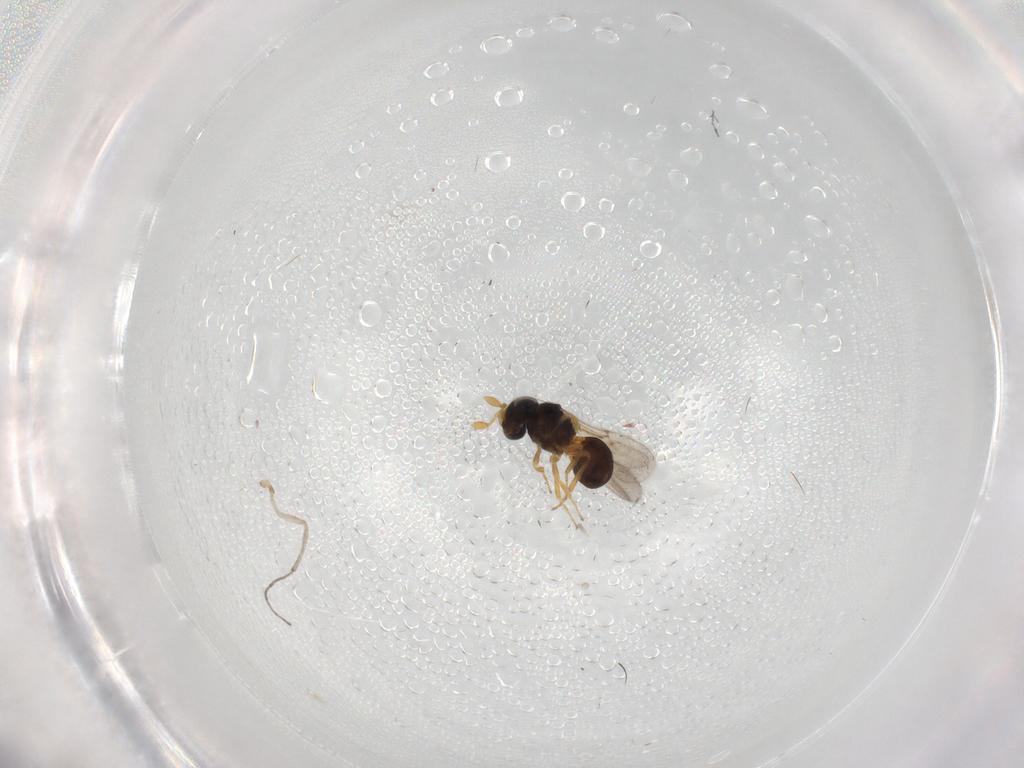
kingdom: Animalia
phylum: Arthropoda
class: Insecta
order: Hymenoptera
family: Scelionidae
